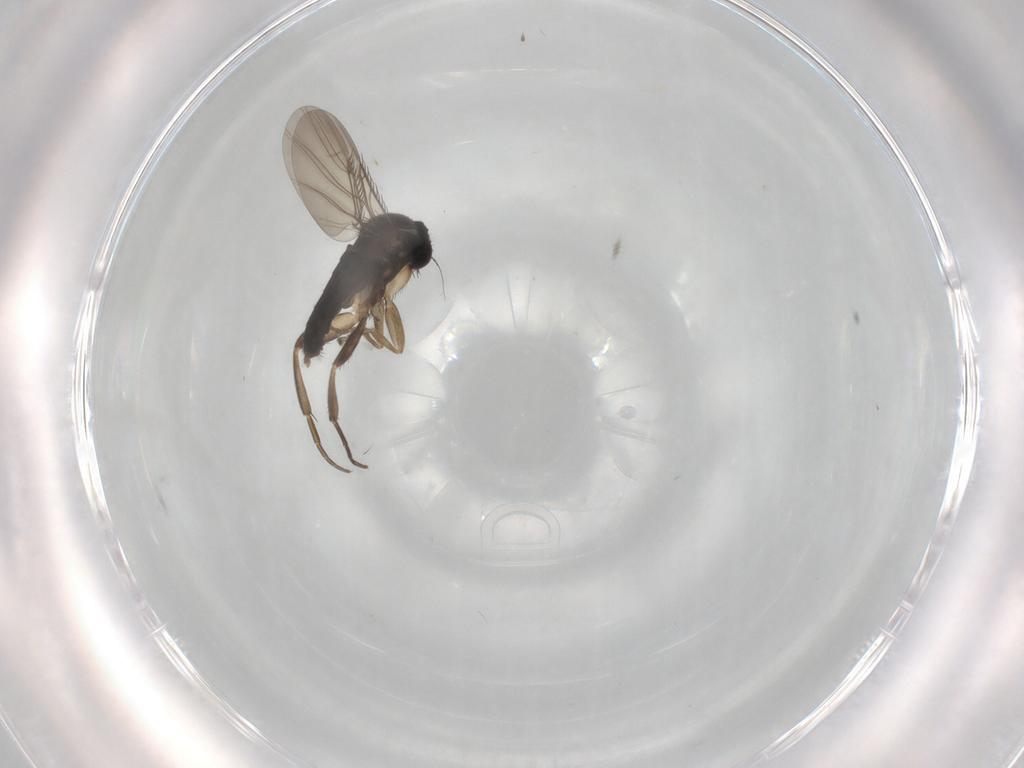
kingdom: Animalia
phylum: Arthropoda
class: Insecta
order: Diptera
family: Phoridae
